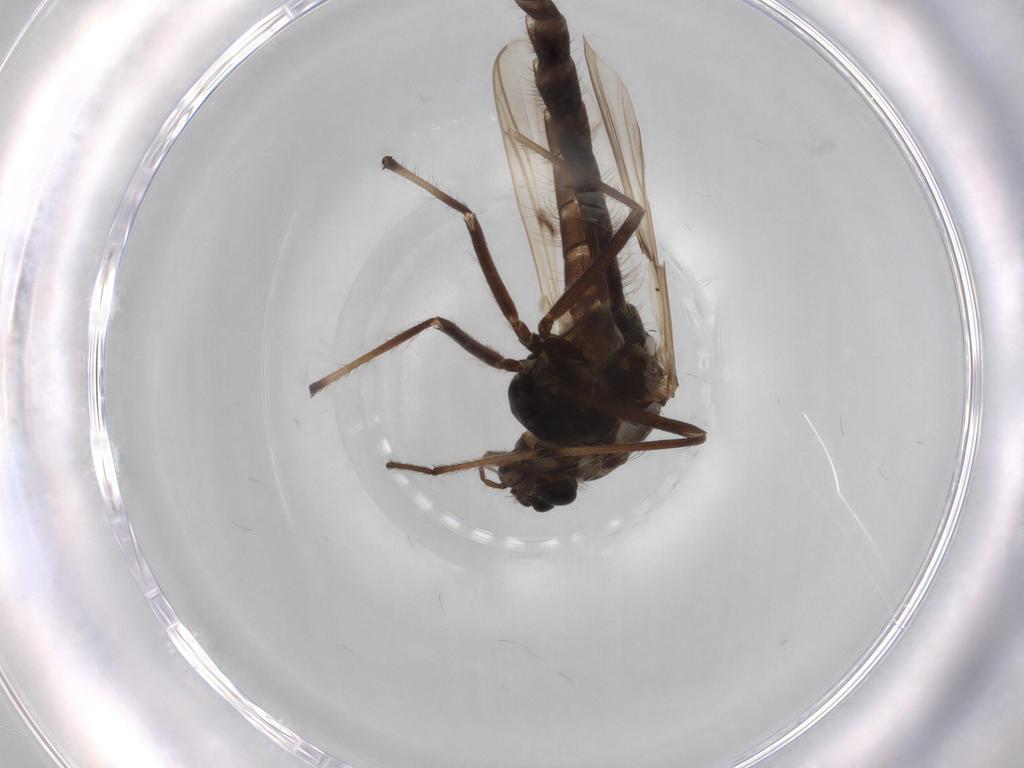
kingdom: Animalia
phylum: Arthropoda
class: Insecta
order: Diptera
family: Chironomidae
